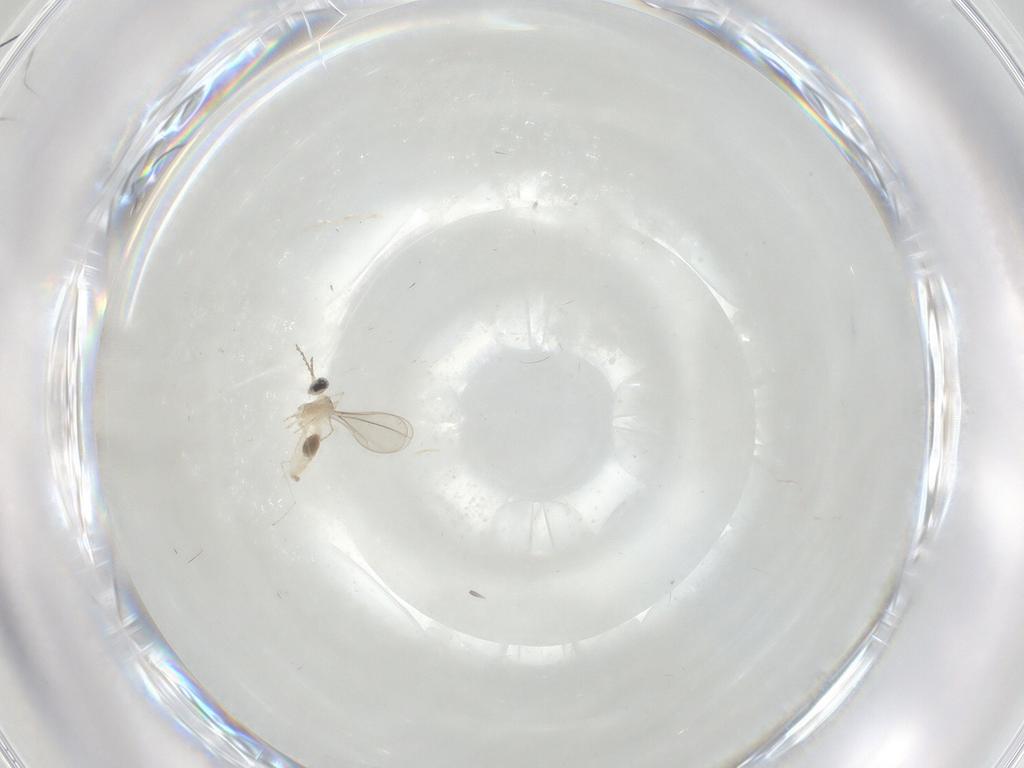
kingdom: Animalia
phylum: Arthropoda
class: Insecta
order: Diptera
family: Cecidomyiidae
